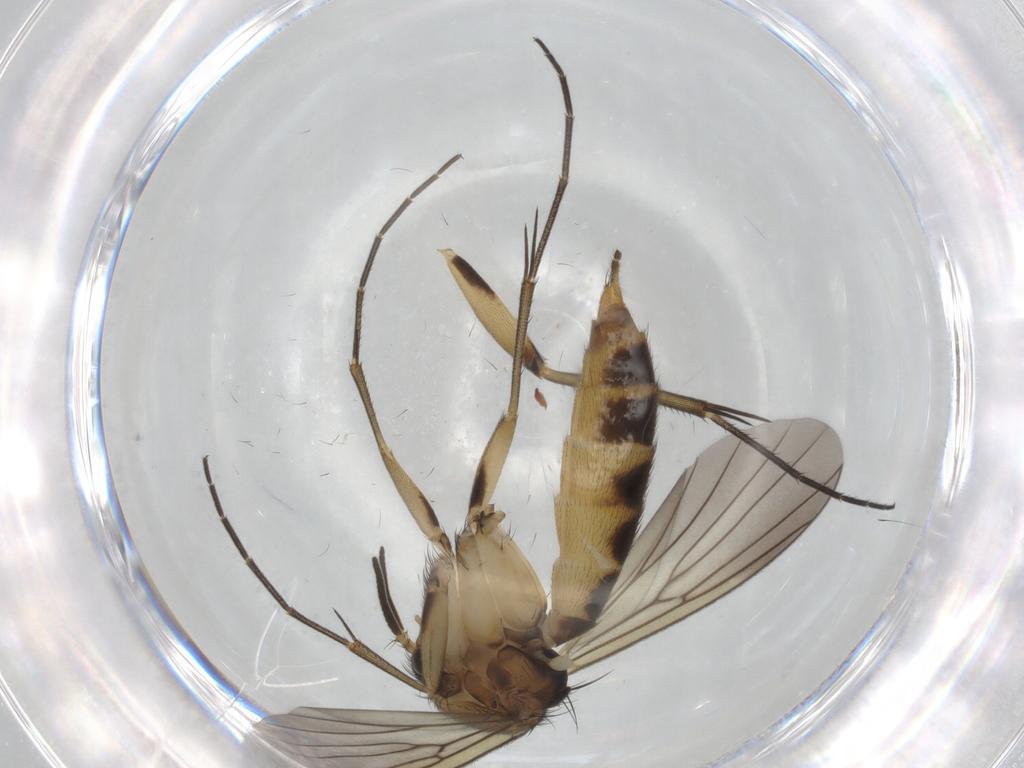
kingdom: Animalia
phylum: Arthropoda
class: Insecta
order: Diptera
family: Mycetophilidae
